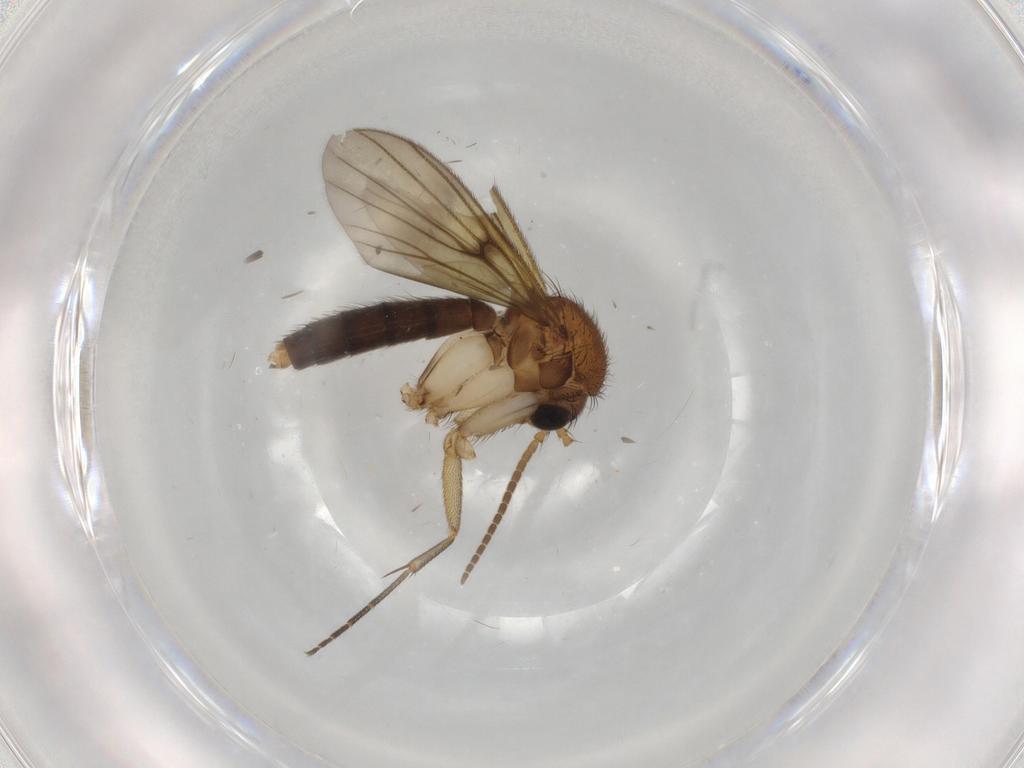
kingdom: Animalia
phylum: Arthropoda
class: Insecta
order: Diptera
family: Mycetophilidae
